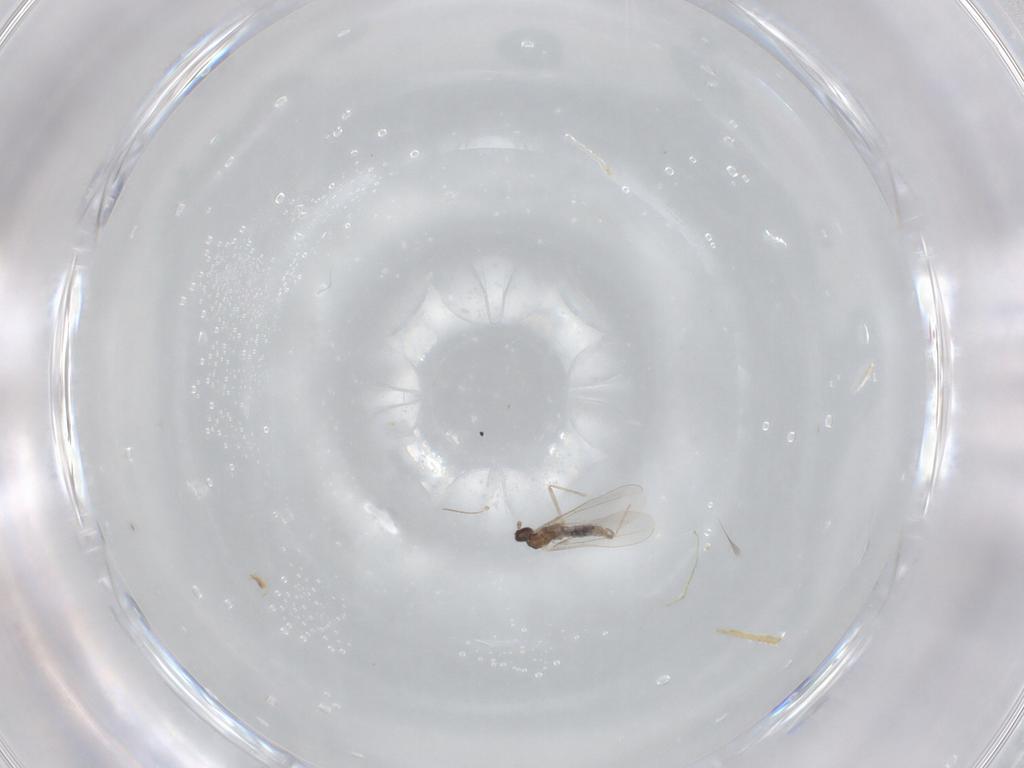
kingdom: Animalia
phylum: Arthropoda
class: Insecta
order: Diptera
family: Cecidomyiidae
